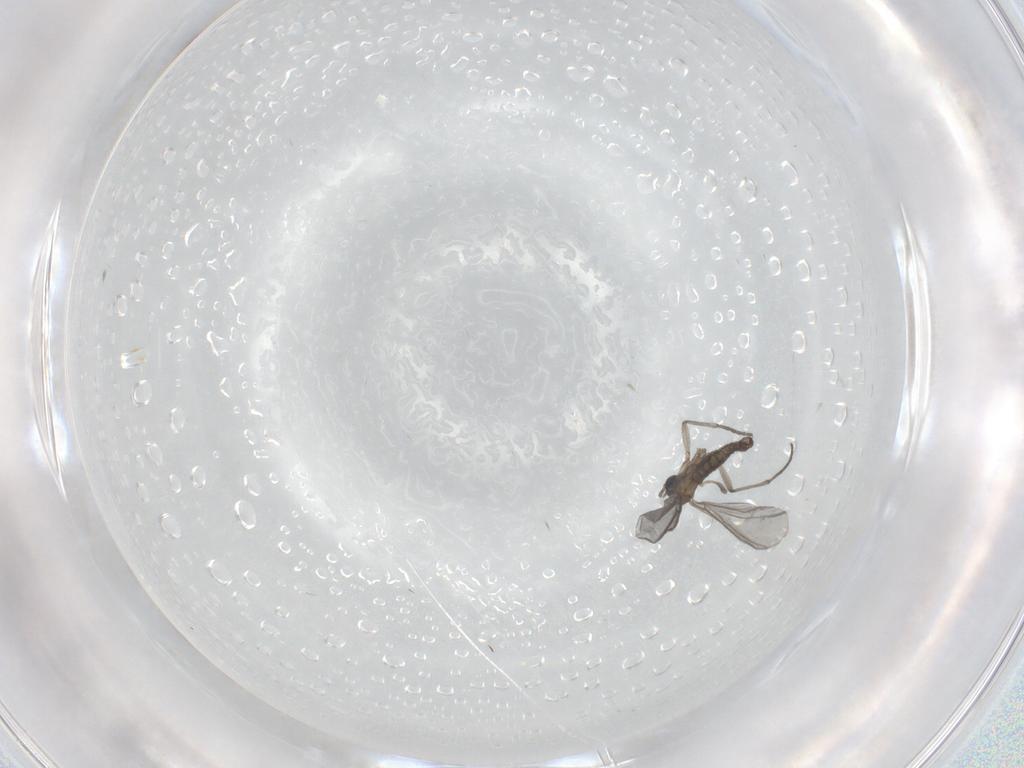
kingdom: Animalia
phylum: Arthropoda
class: Insecta
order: Diptera
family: Sciaridae
